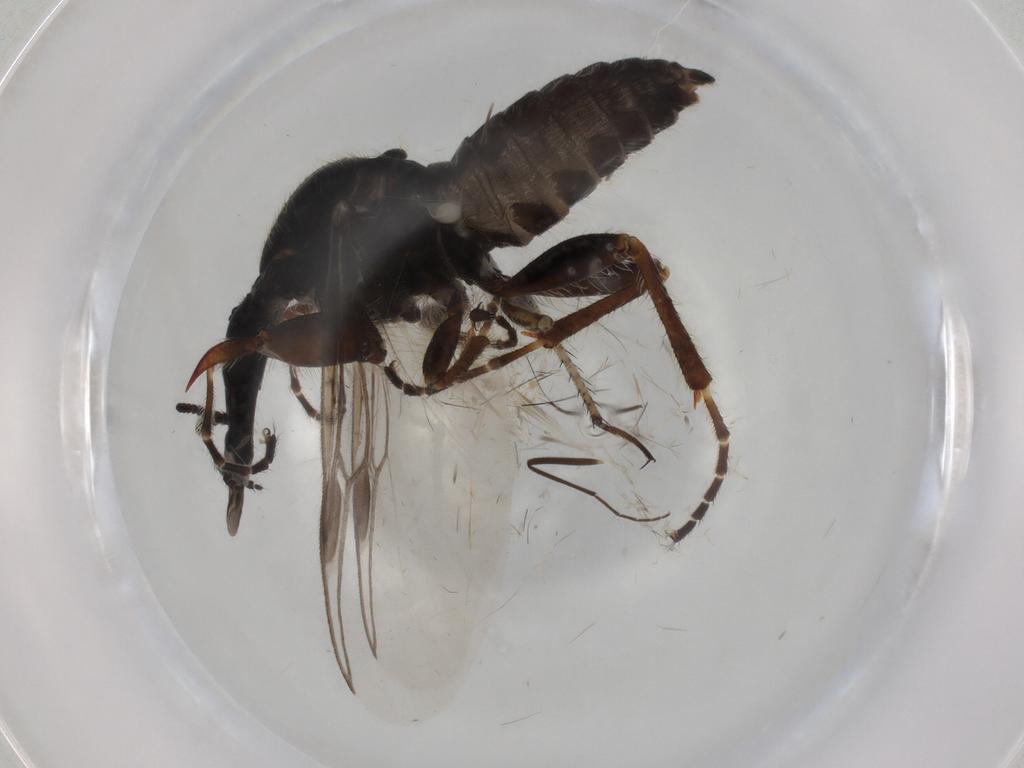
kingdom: Animalia
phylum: Arthropoda
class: Insecta
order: Diptera
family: Bibionidae
